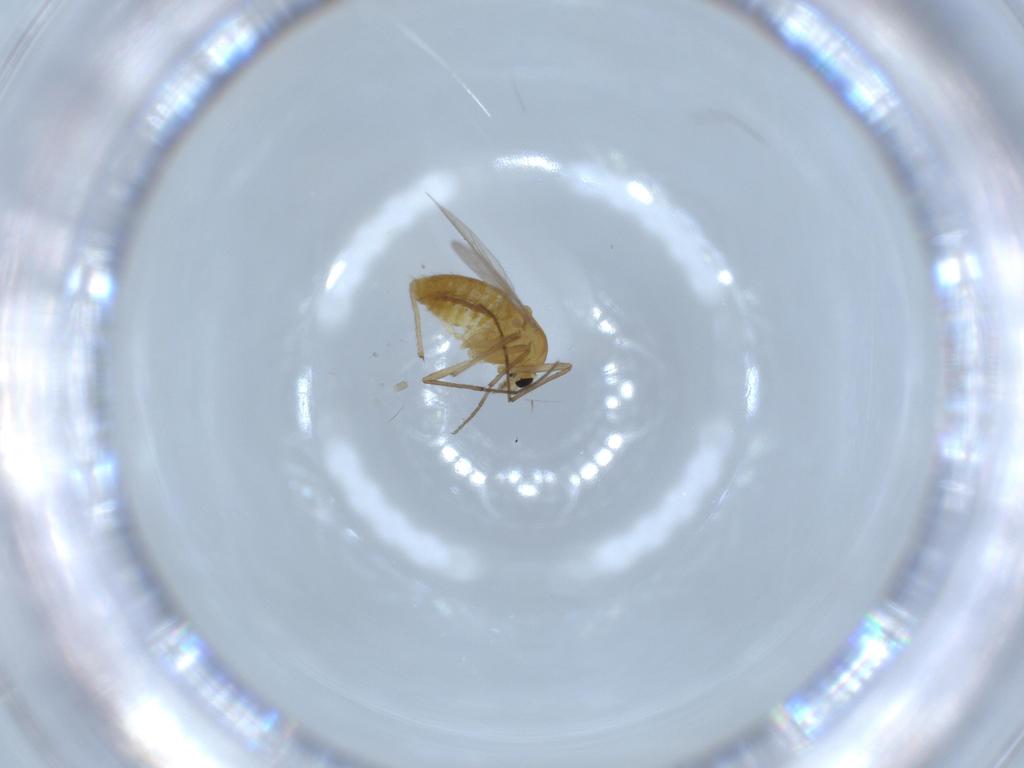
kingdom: Animalia
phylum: Arthropoda
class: Insecta
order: Diptera
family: Chironomidae
